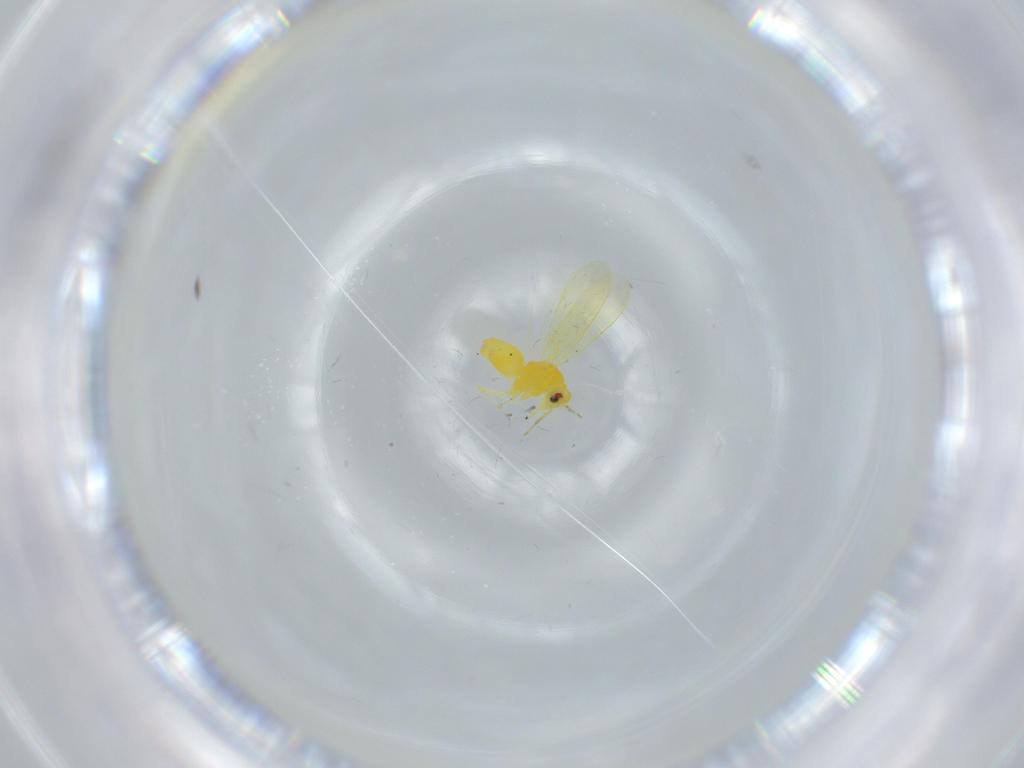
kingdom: Animalia
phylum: Arthropoda
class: Insecta
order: Hemiptera
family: Aleyrodidae
